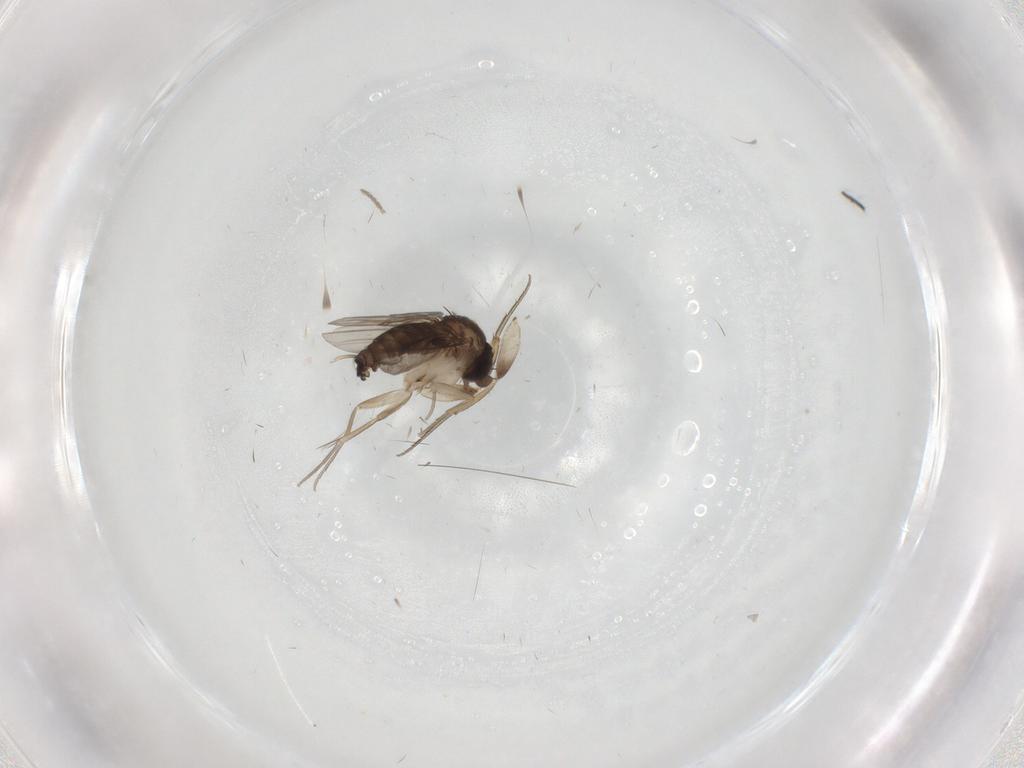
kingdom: Animalia
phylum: Arthropoda
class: Insecta
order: Diptera
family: Phoridae
